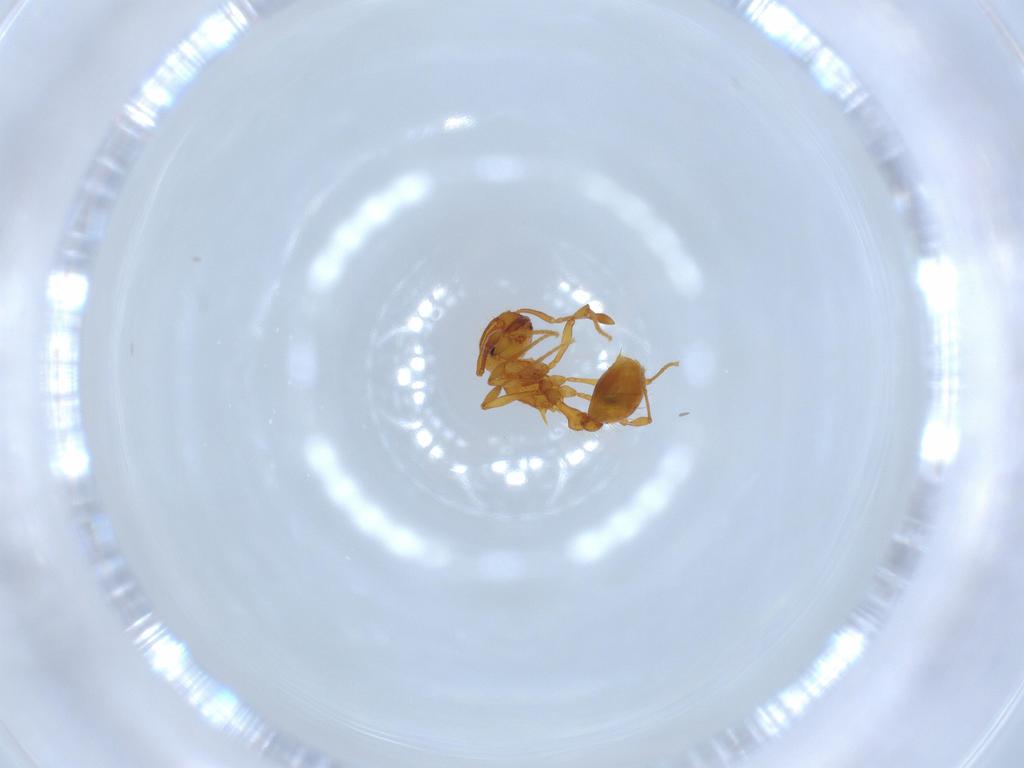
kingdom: Animalia
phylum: Arthropoda
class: Insecta
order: Hymenoptera
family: Formicidae
